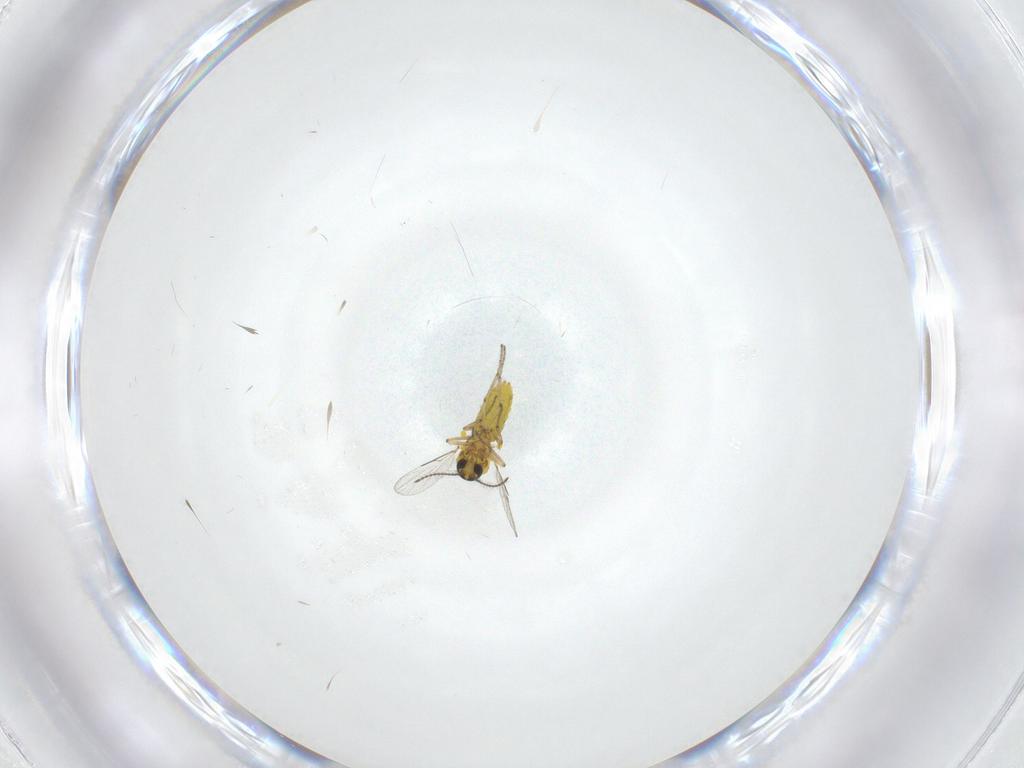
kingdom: Animalia
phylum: Arthropoda
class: Insecta
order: Diptera
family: Ceratopogonidae
